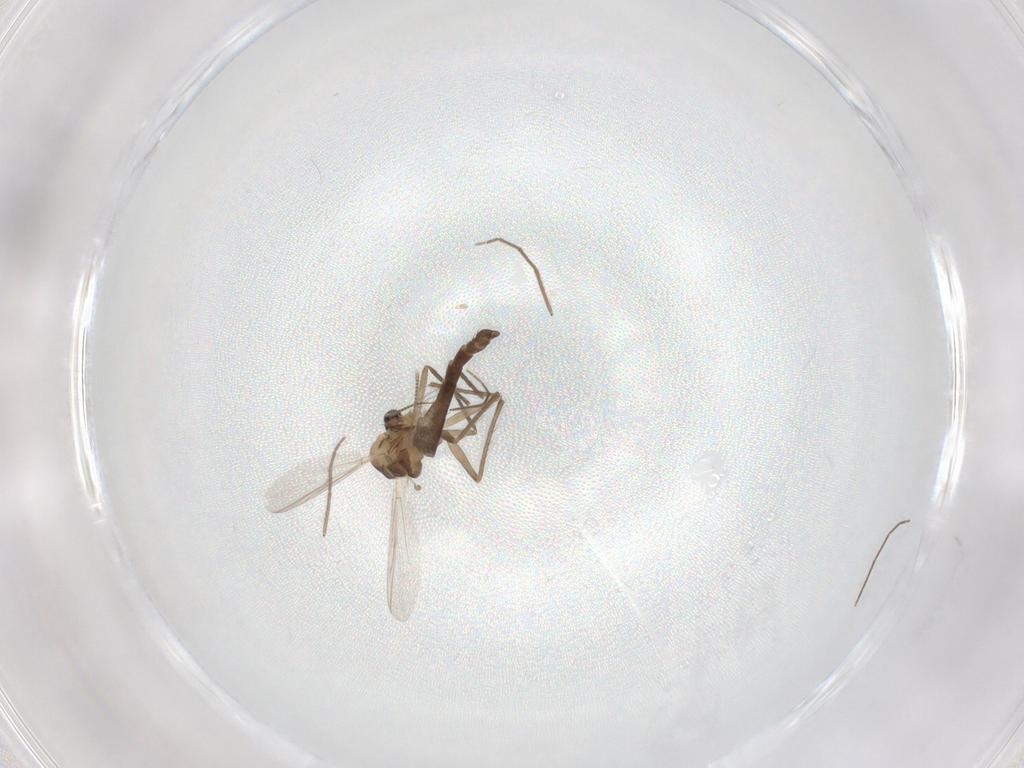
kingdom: Animalia
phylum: Arthropoda
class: Insecta
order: Diptera
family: Chironomidae
